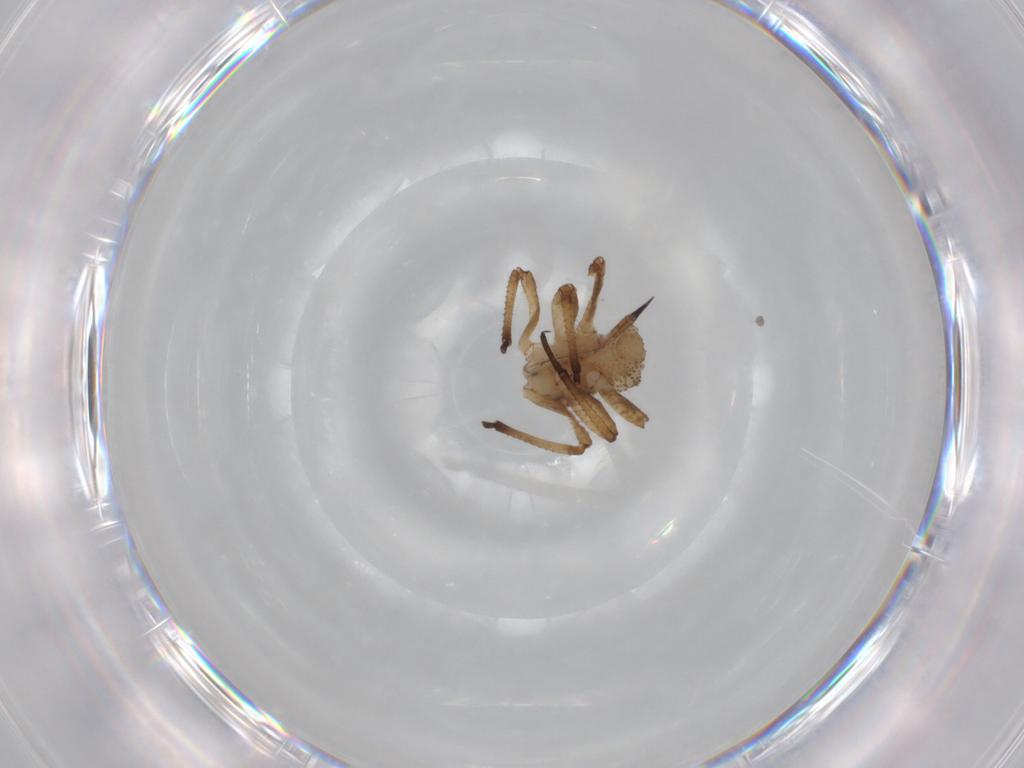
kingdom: Animalia
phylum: Arthropoda
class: Insecta
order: Hemiptera
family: Aphididae
